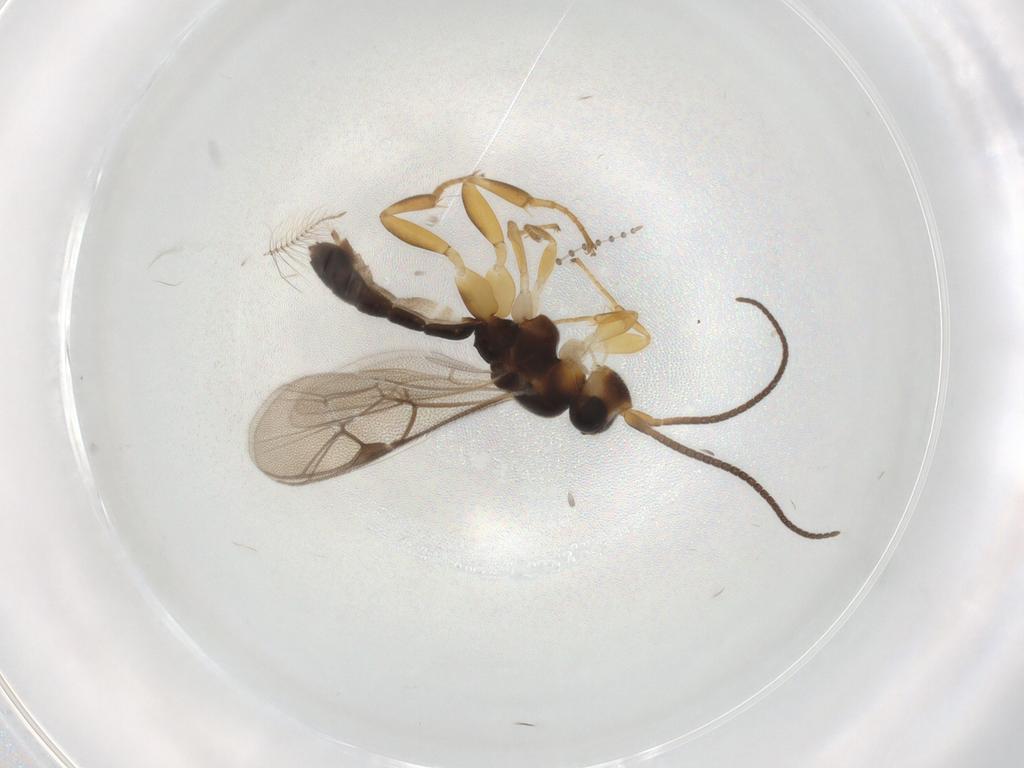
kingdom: Animalia
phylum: Arthropoda
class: Insecta
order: Hymenoptera
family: Ichneumonidae
